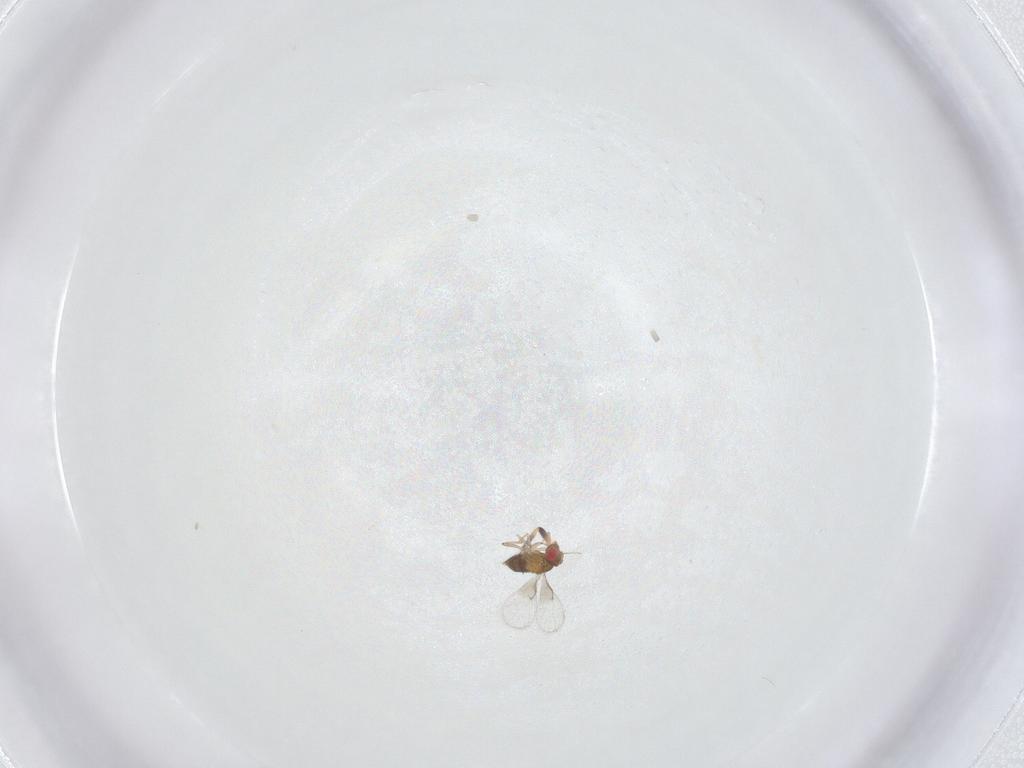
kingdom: Animalia
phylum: Arthropoda
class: Insecta
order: Hymenoptera
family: Trichogrammatidae
